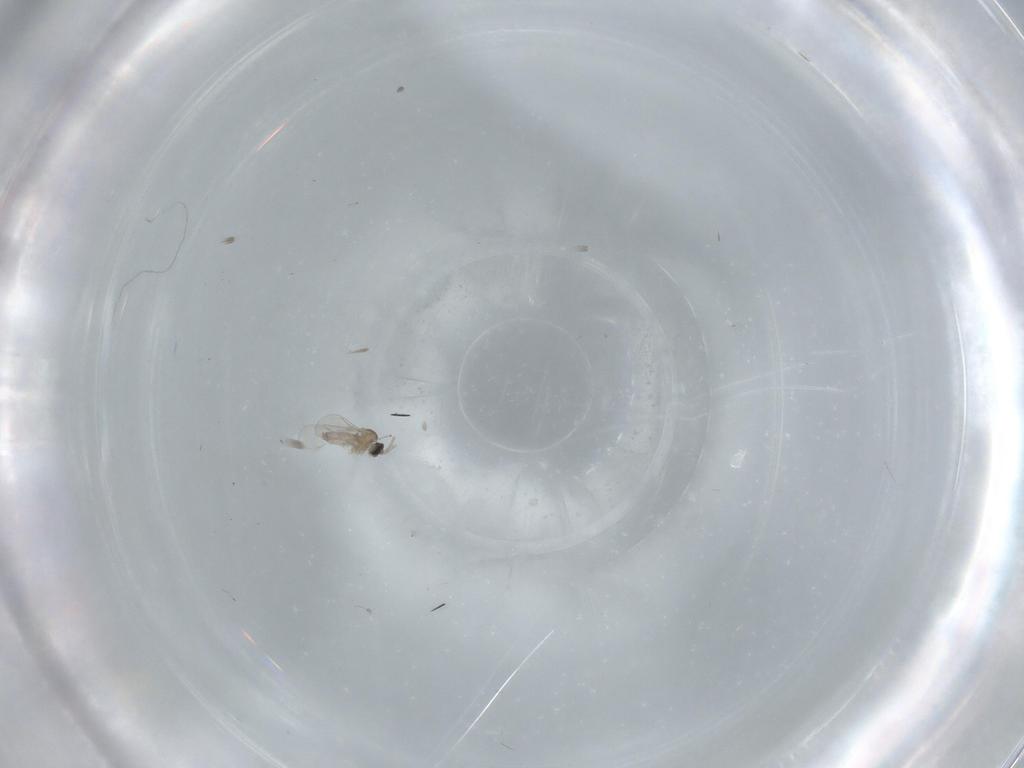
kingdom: Animalia
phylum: Arthropoda
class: Insecta
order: Diptera
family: Cecidomyiidae
